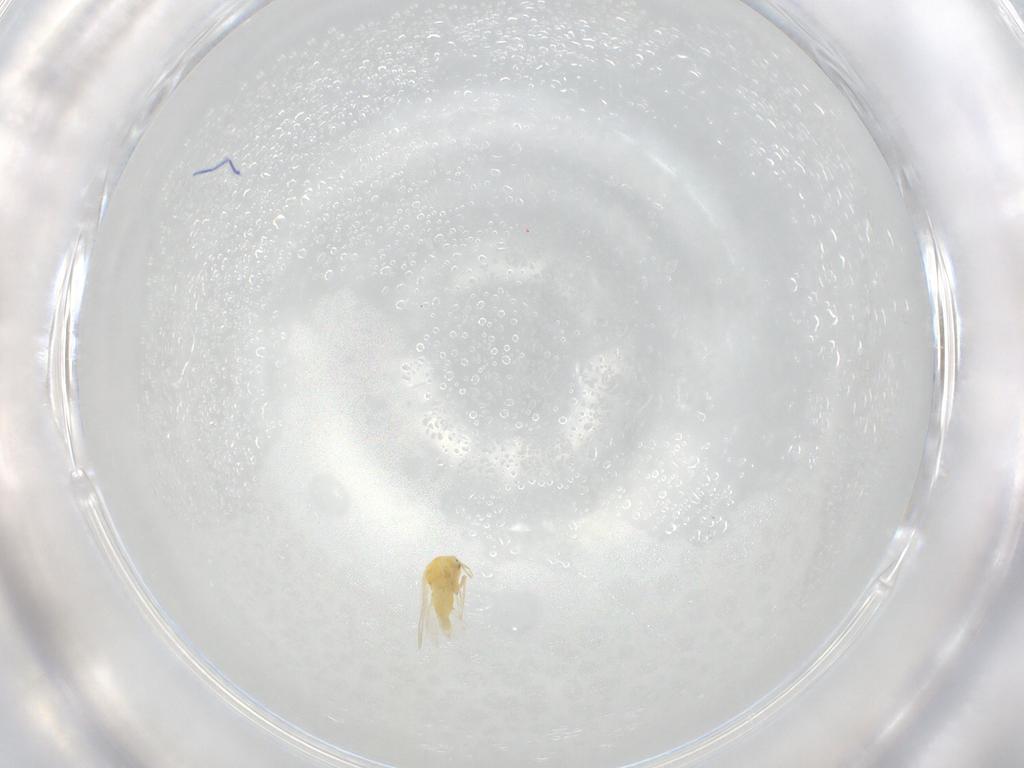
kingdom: Animalia
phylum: Arthropoda
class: Insecta
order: Hemiptera
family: Aleyrodidae
